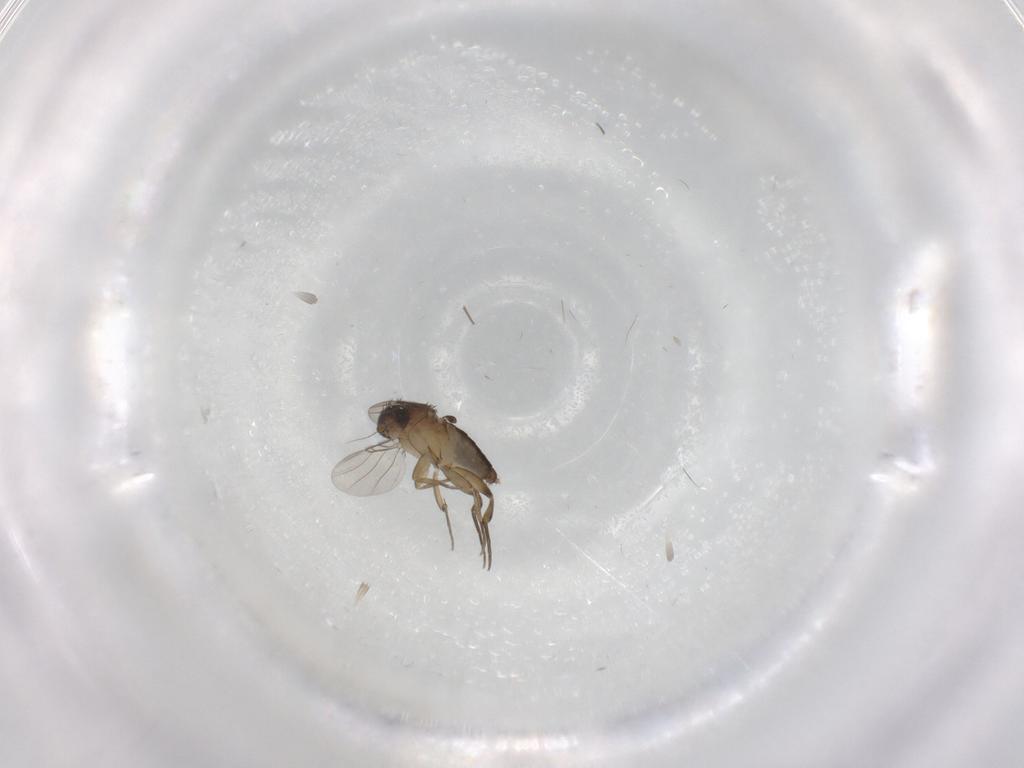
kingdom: Animalia
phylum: Arthropoda
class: Insecta
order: Diptera
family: Phoridae
